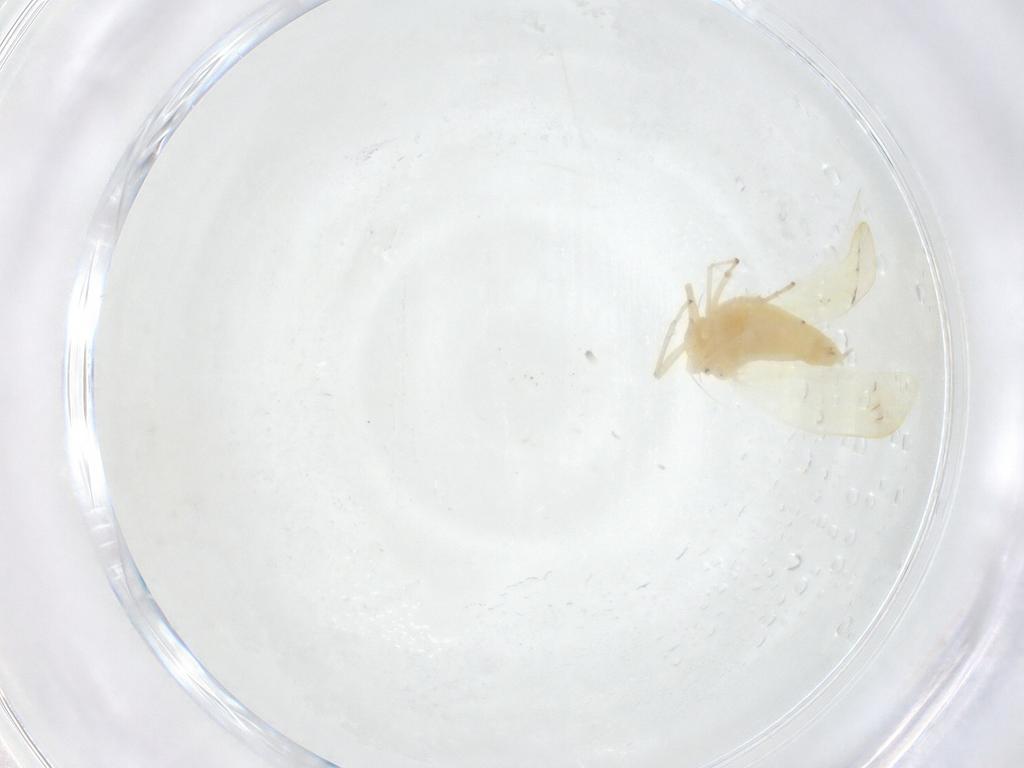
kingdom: Animalia
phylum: Arthropoda
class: Insecta
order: Hemiptera
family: Cicadellidae
